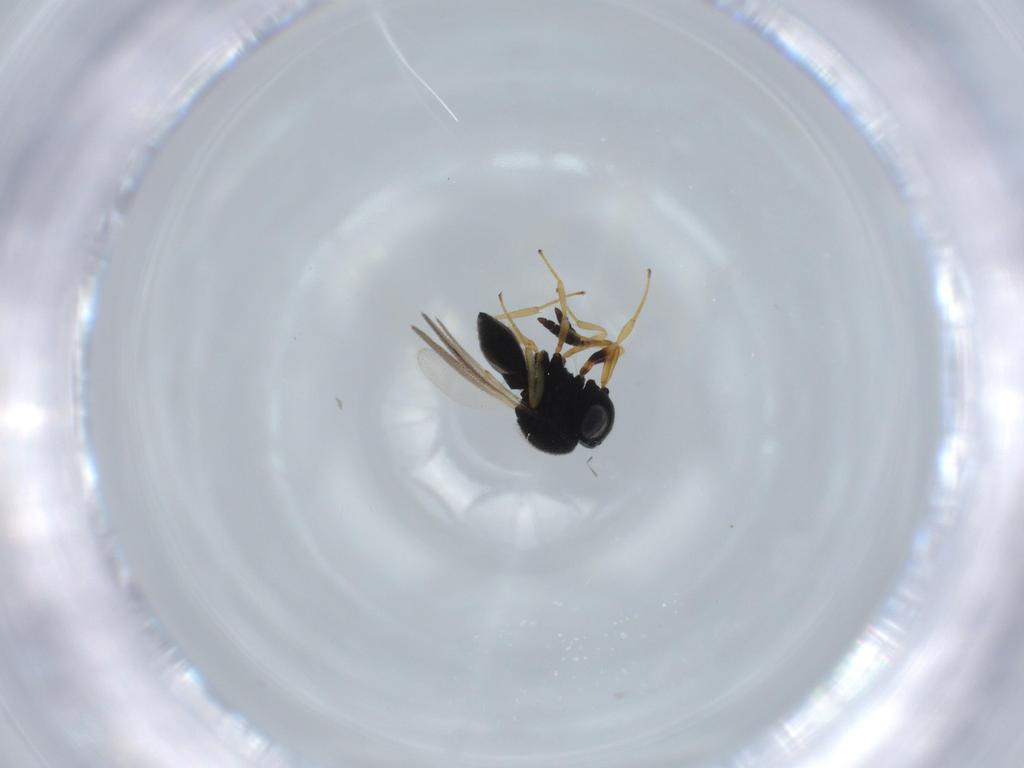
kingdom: Animalia
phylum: Arthropoda
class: Insecta
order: Hymenoptera
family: Scelionidae
